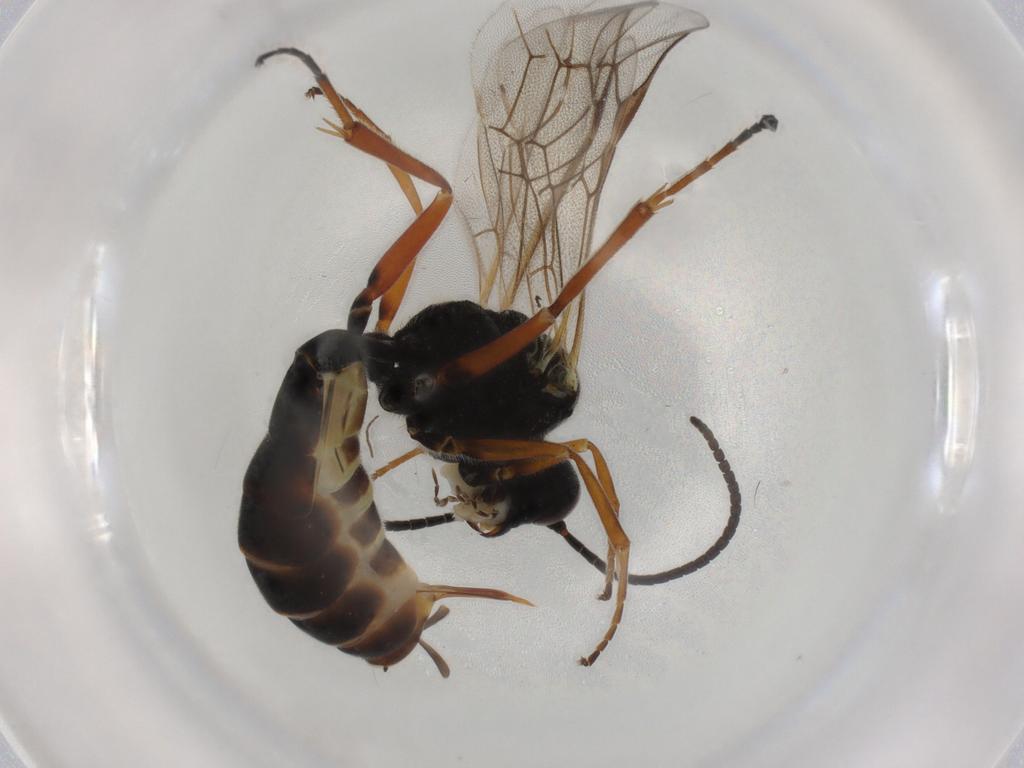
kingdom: Animalia
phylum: Arthropoda
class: Insecta
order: Hymenoptera
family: Ichneumonidae
